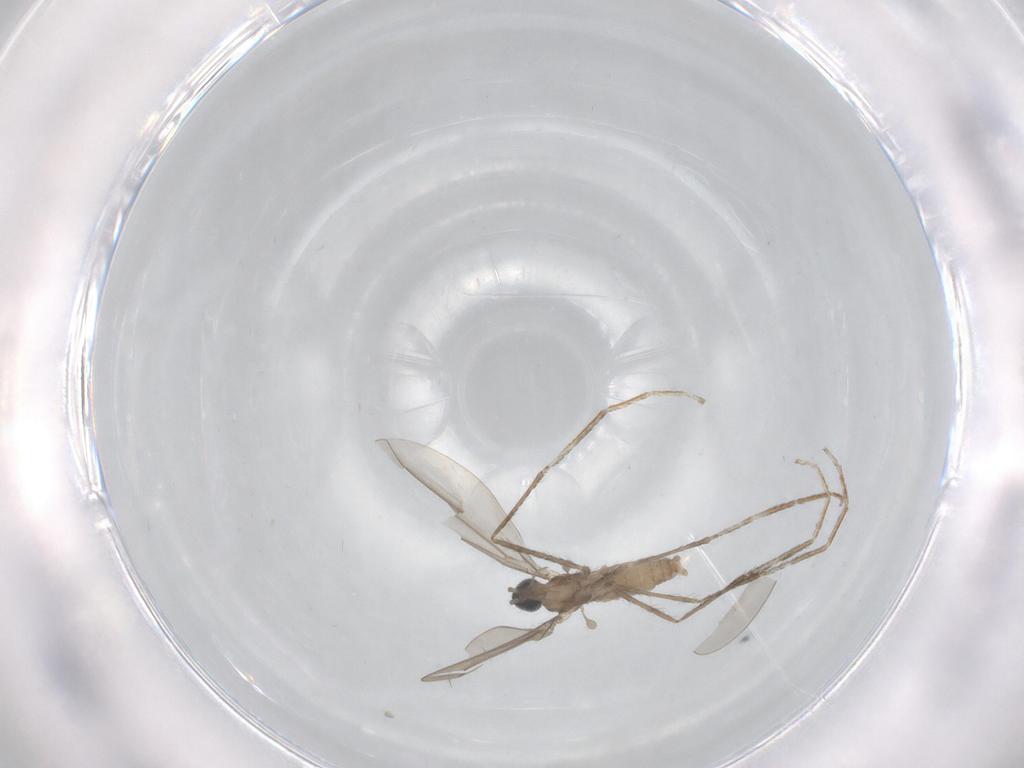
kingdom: Animalia
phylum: Arthropoda
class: Insecta
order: Diptera
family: Cecidomyiidae
